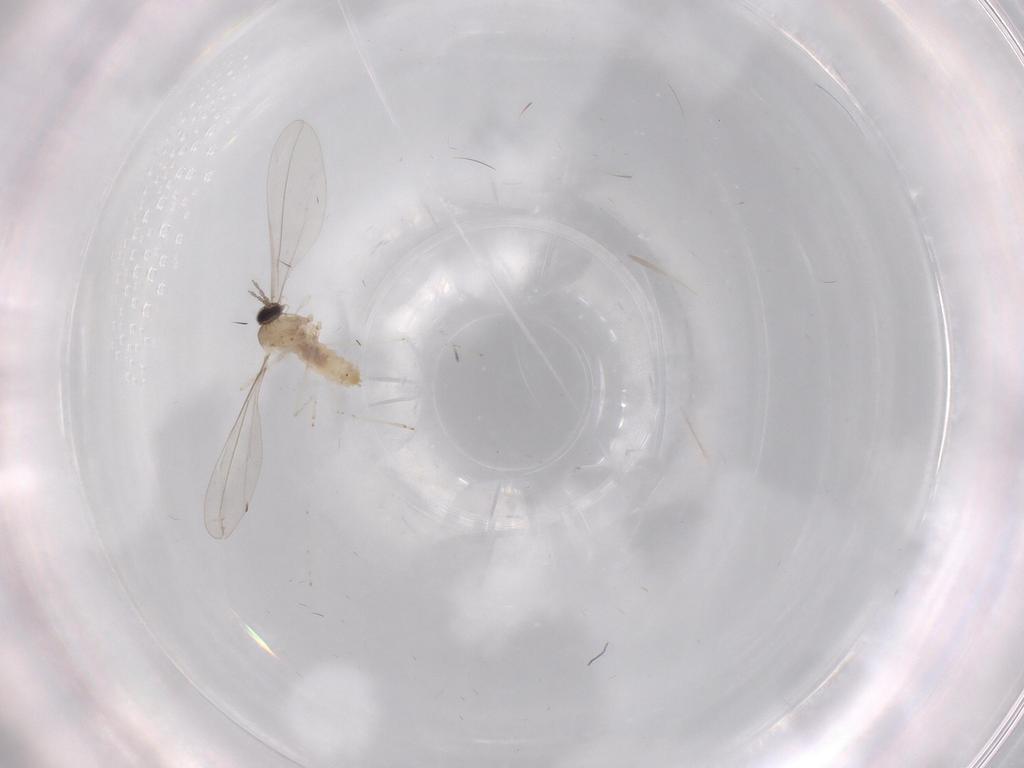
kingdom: Animalia
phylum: Arthropoda
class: Insecta
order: Diptera
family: Limoniidae
